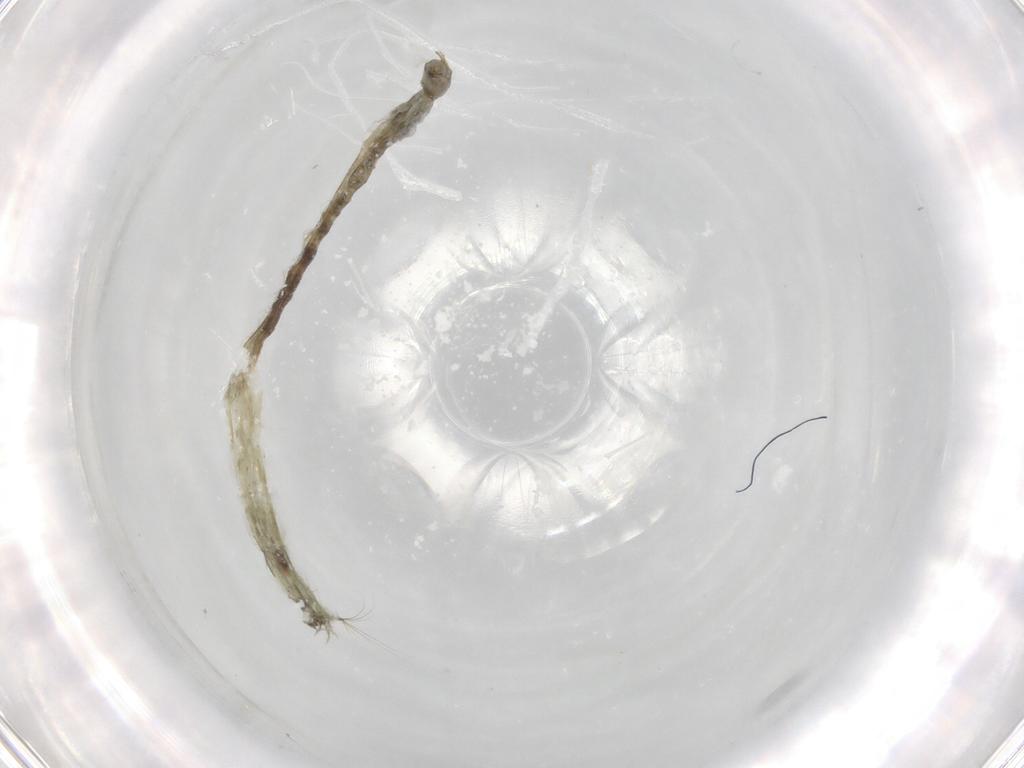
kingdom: Animalia
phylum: Arthropoda
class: Insecta
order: Diptera
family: Chironomidae
